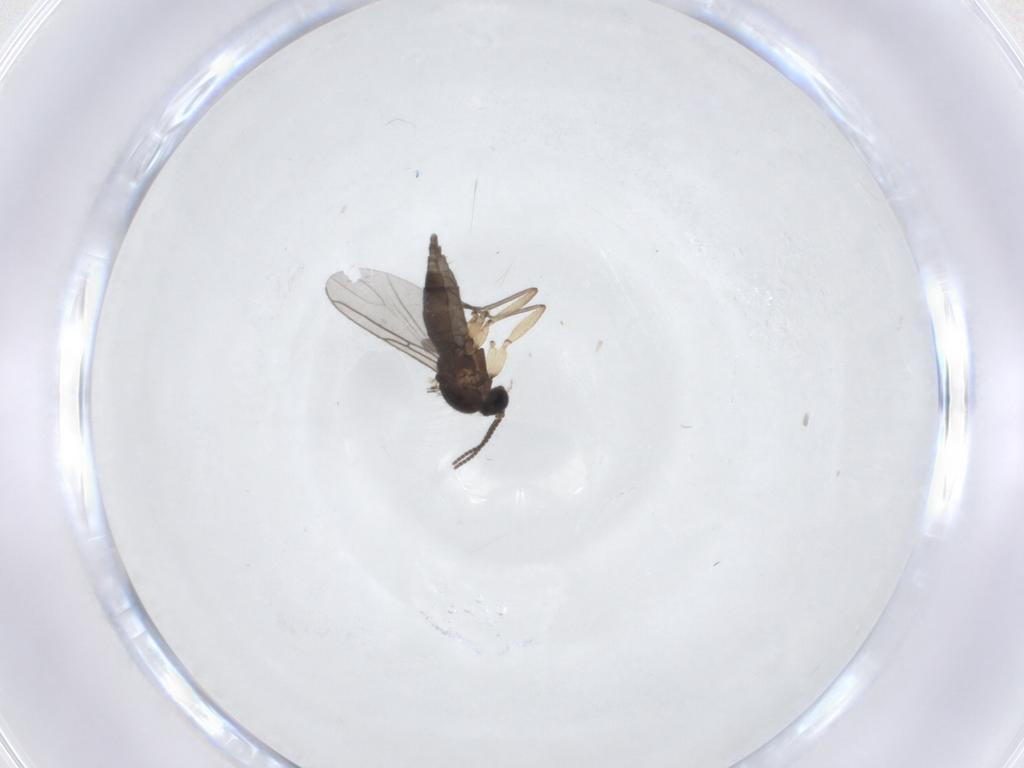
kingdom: Animalia
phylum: Arthropoda
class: Insecta
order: Diptera
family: Sciaridae
